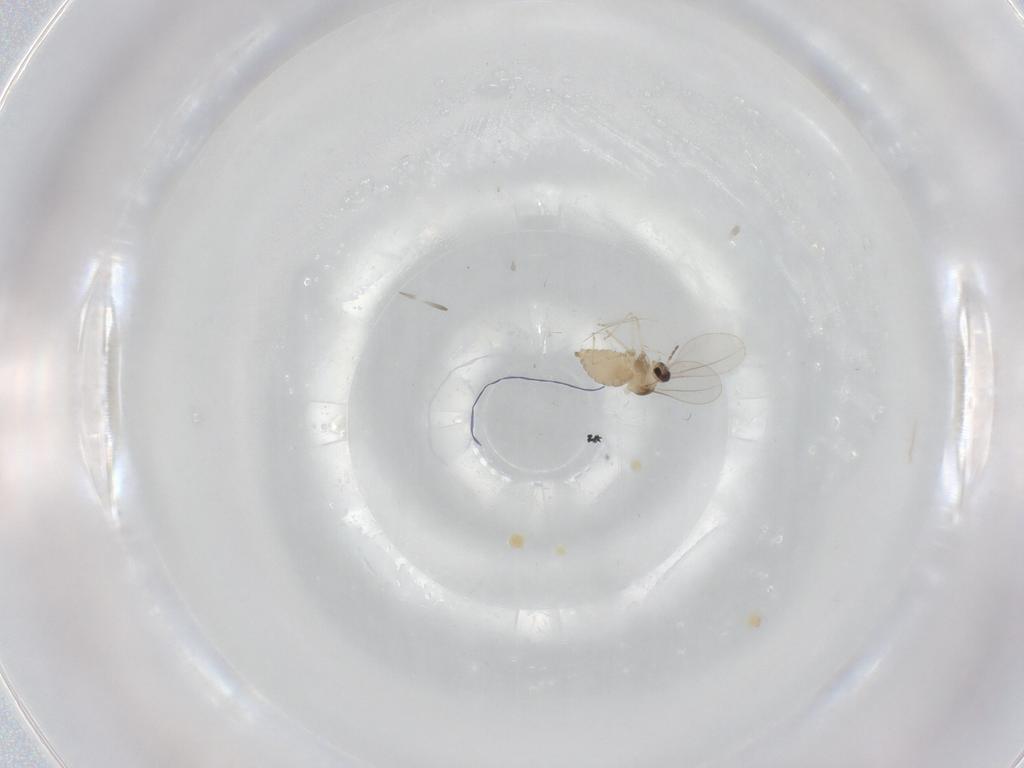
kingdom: Animalia
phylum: Arthropoda
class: Insecta
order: Diptera
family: Cecidomyiidae
